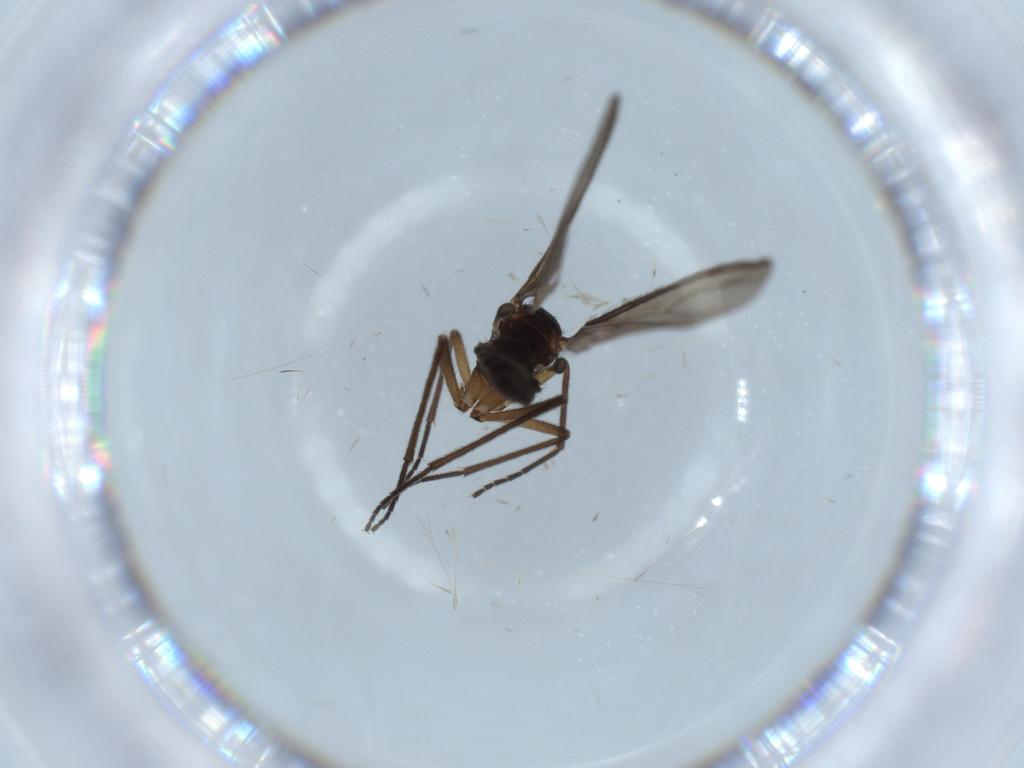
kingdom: Animalia
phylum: Arthropoda
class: Insecta
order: Diptera
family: Sciaridae
